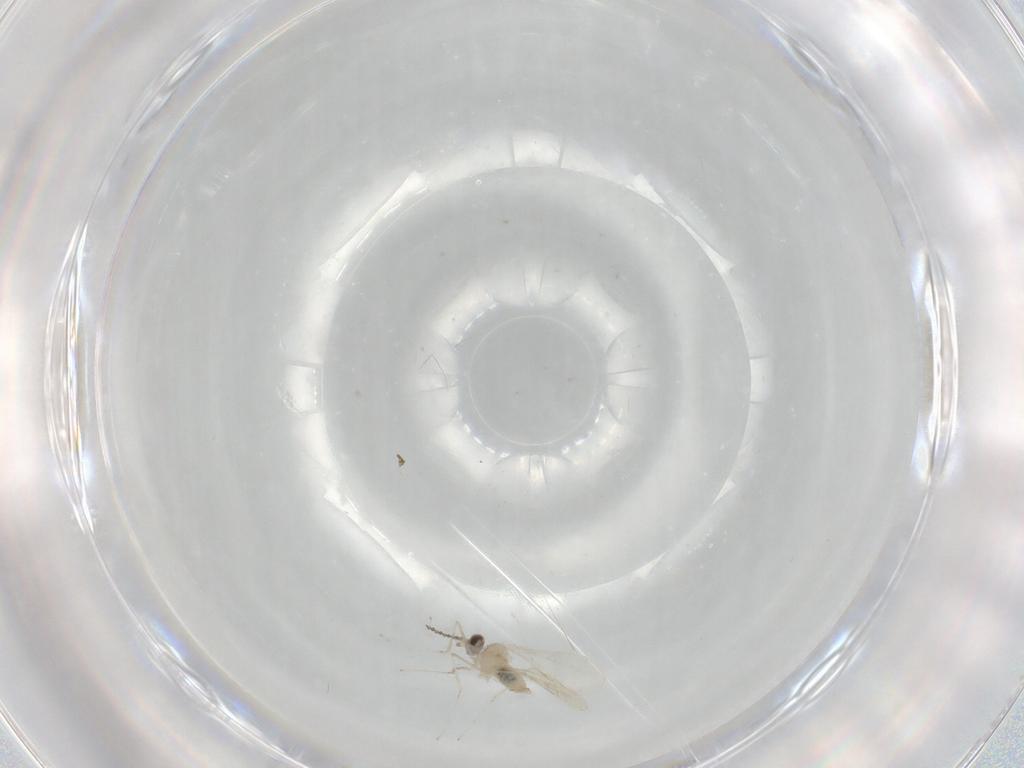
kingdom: Animalia
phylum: Arthropoda
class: Insecta
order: Diptera
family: Cecidomyiidae
